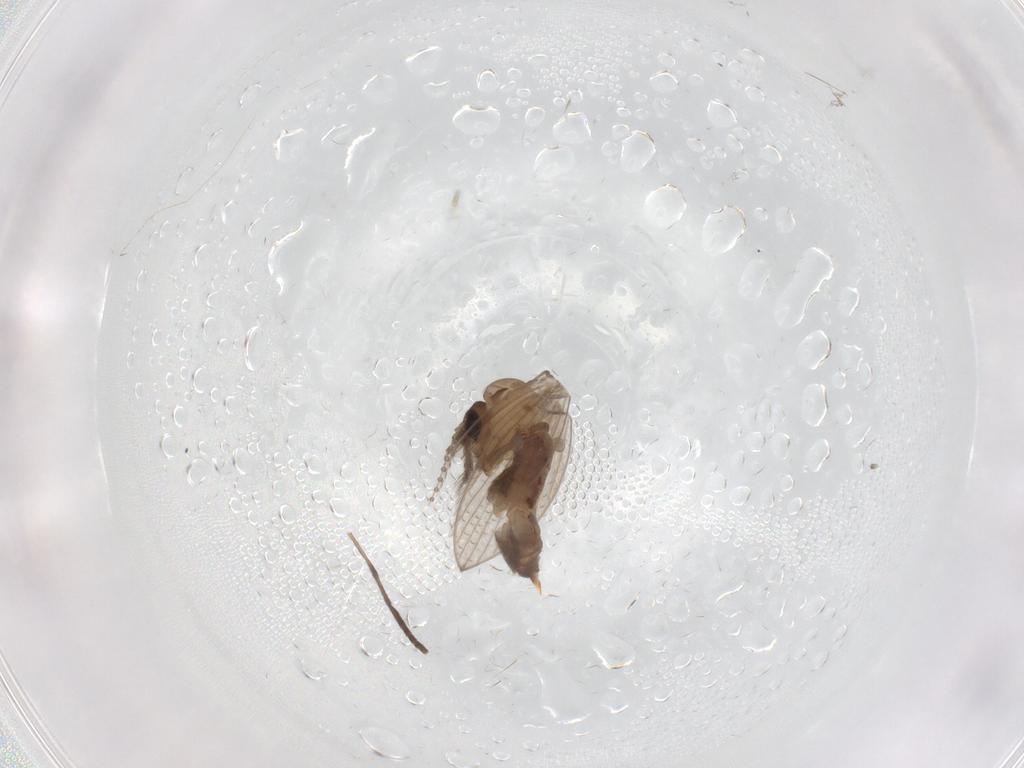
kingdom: Animalia
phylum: Arthropoda
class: Insecta
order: Diptera
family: Psychodidae
